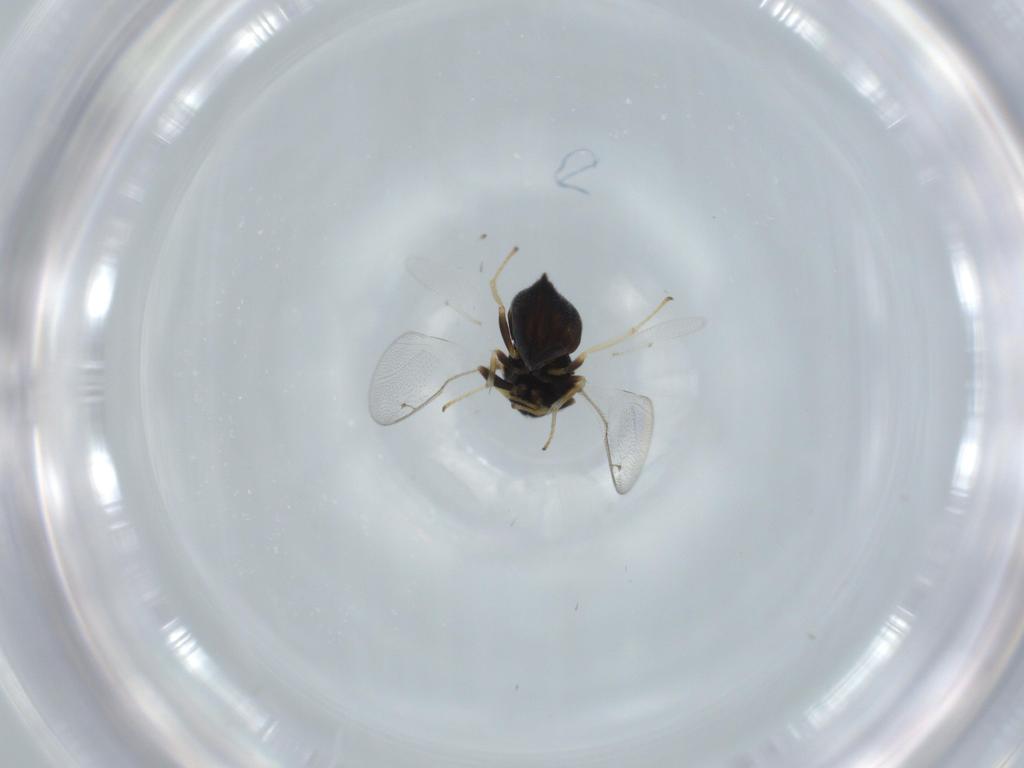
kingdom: Animalia
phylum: Arthropoda
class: Insecta
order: Hymenoptera
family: Pteromalidae
